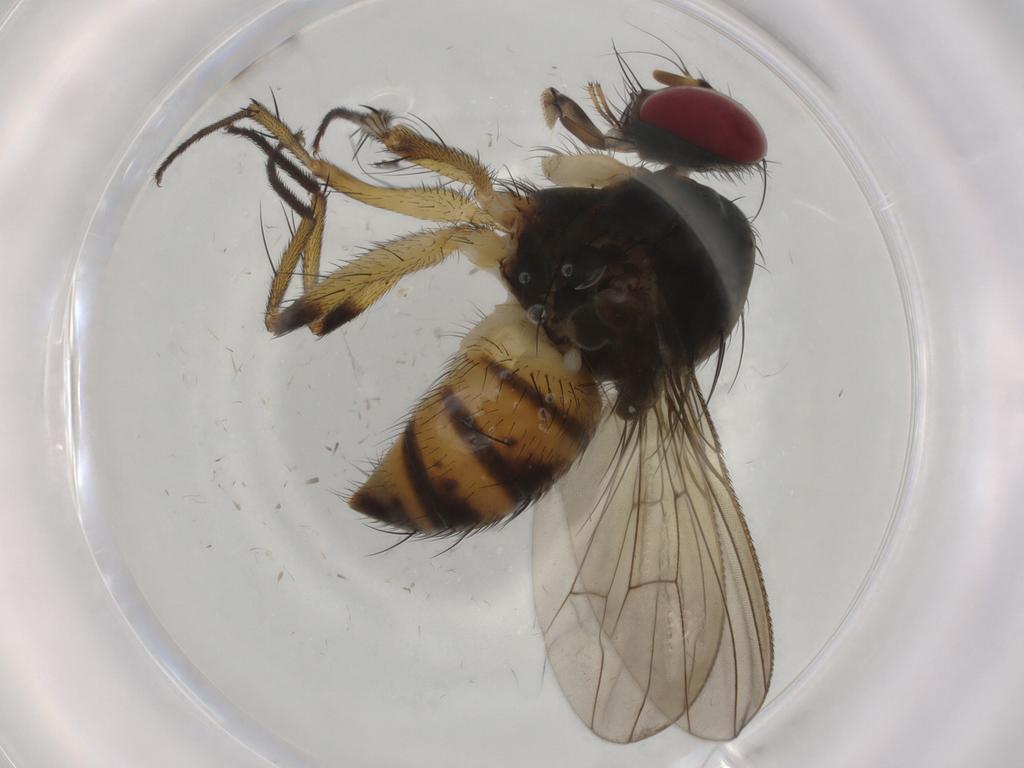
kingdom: Animalia
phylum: Arthropoda
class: Insecta
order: Diptera
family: Muscidae
